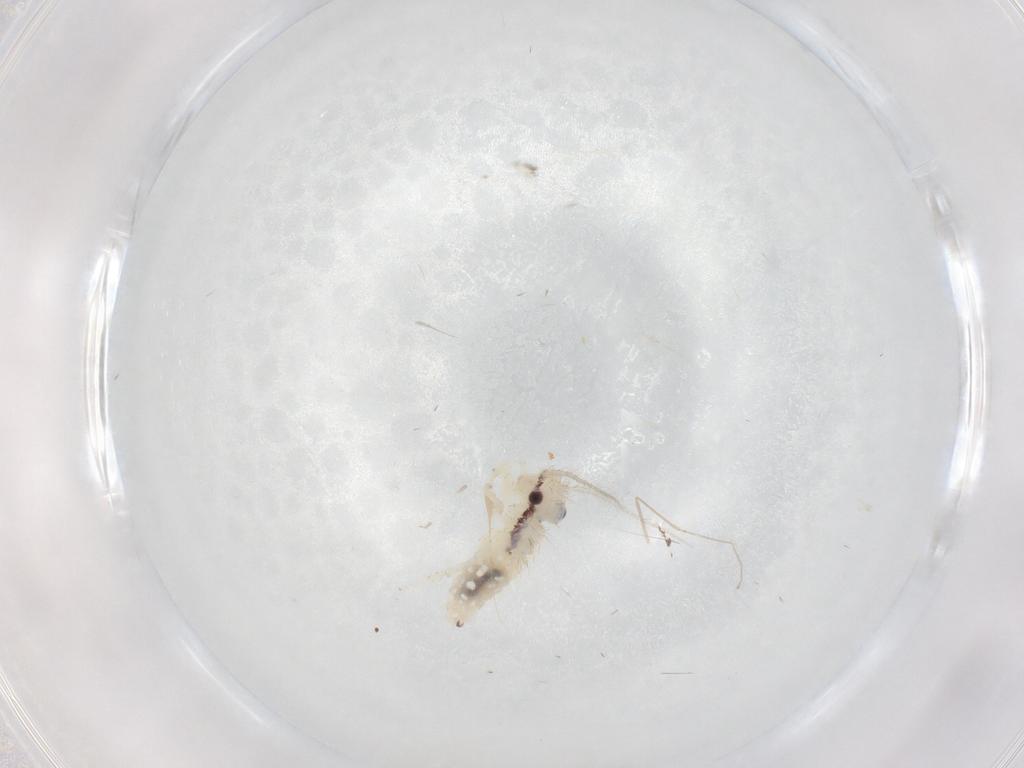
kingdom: Animalia
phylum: Arthropoda
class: Insecta
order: Psocodea
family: Philotarsidae
